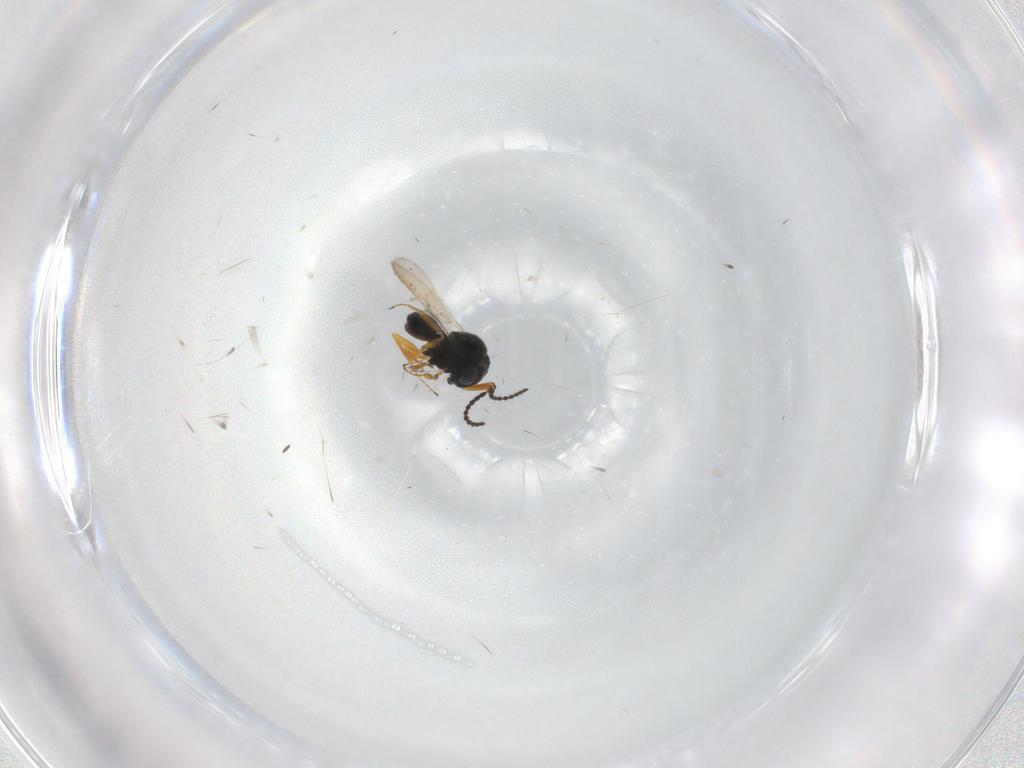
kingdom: Animalia
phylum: Arthropoda
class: Insecta
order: Hymenoptera
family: Scelionidae
